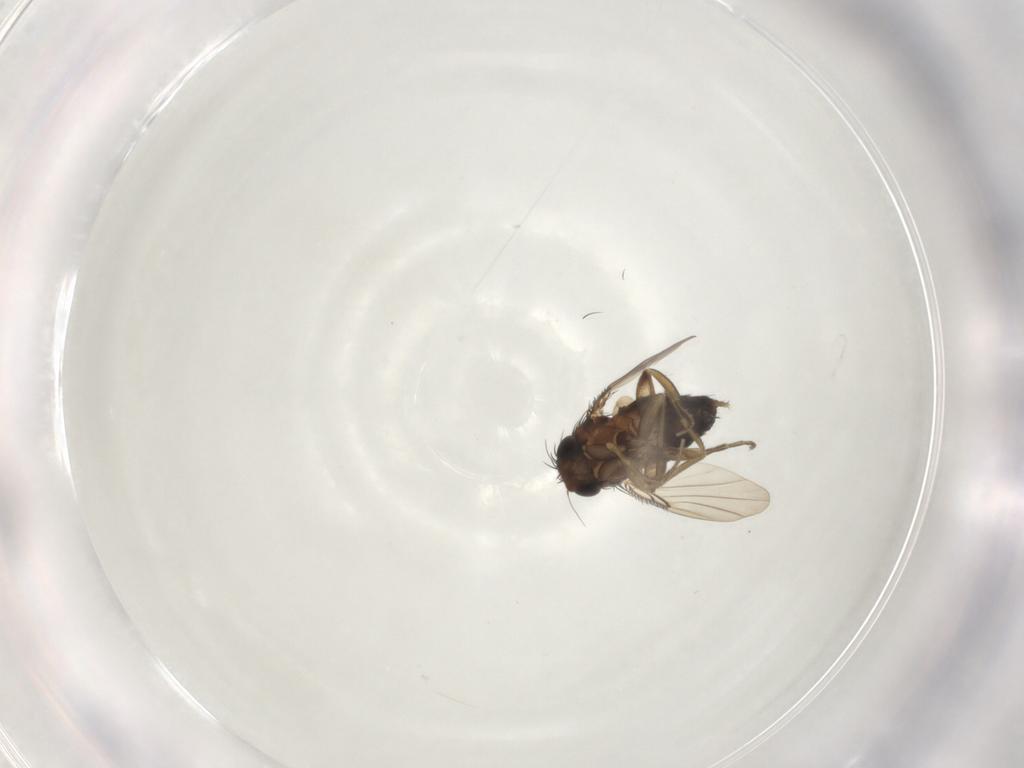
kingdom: Animalia
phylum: Arthropoda
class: Insecta
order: Diptera
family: Phoridae
